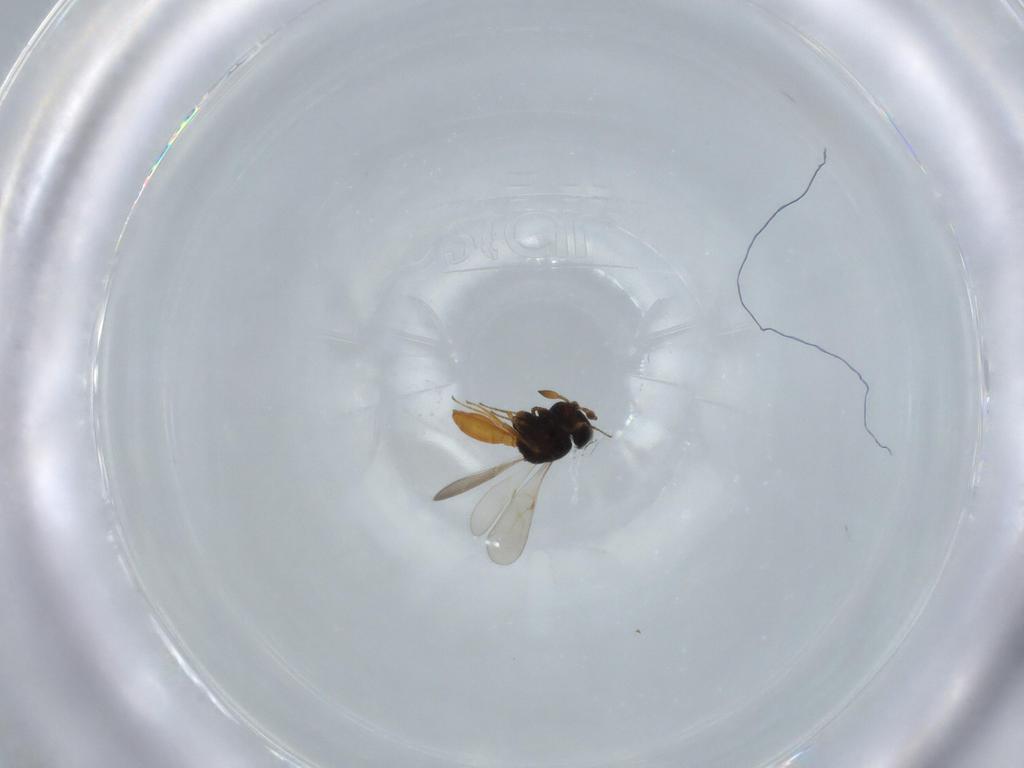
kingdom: Animalia
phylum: Arthropoda
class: Insecta
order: Hymenoptera
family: Scelionidae
